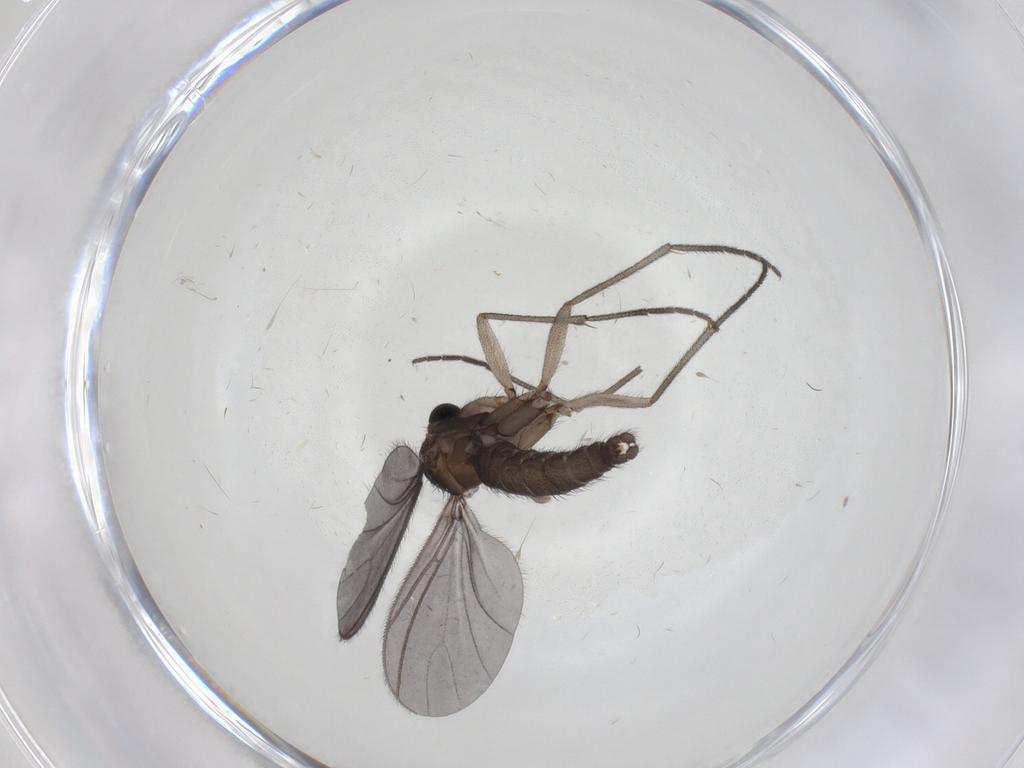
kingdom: Animalia
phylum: Arthropoda
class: Insecta
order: Diptera
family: Sciaridae
